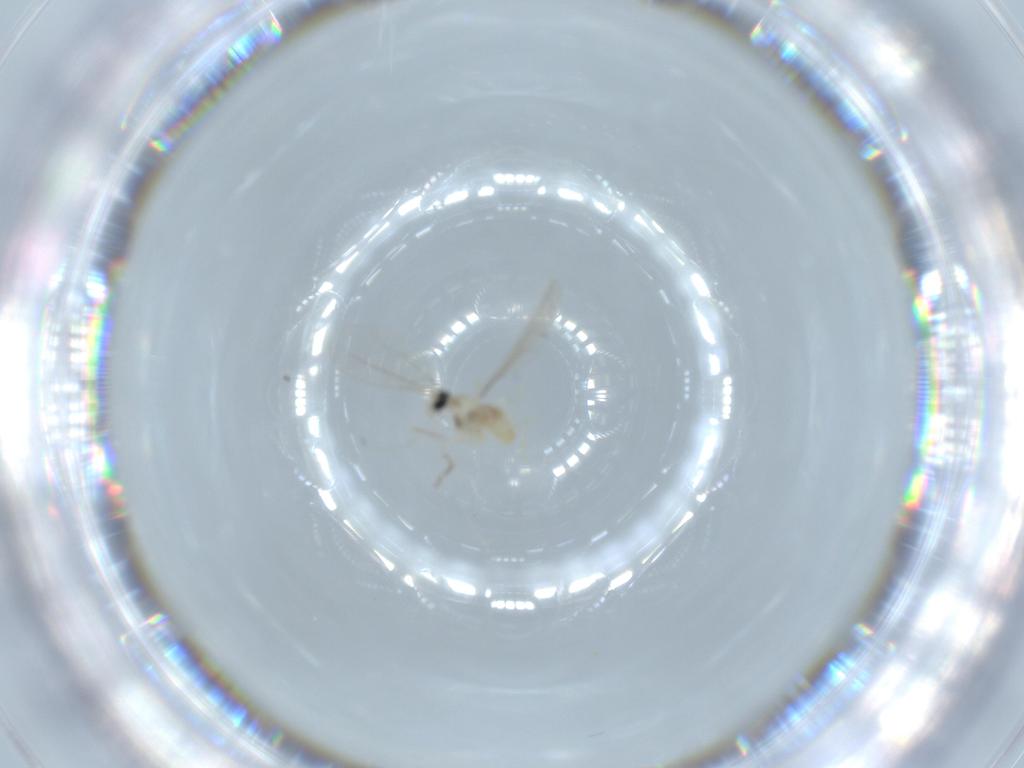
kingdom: Animalia
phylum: Arthropoda
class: Insecta
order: Diptera
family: Cecidomyiidae
